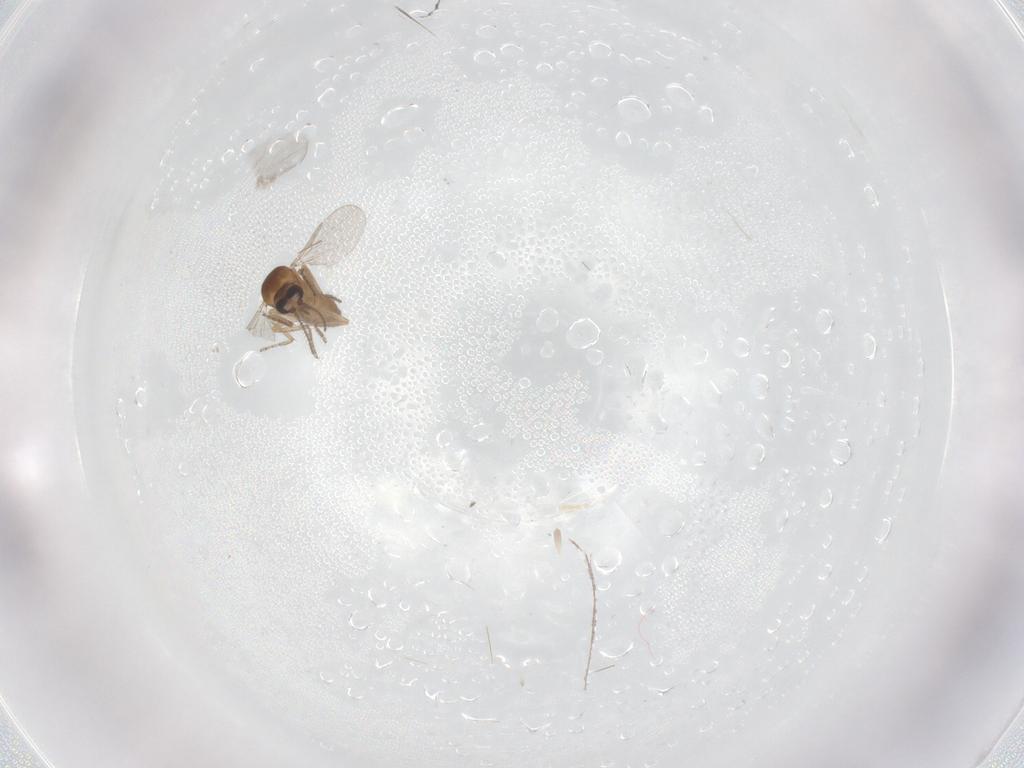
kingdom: Animalia
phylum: Arthropoda
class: Insecta
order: Diptera
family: Ceratopogonidae
